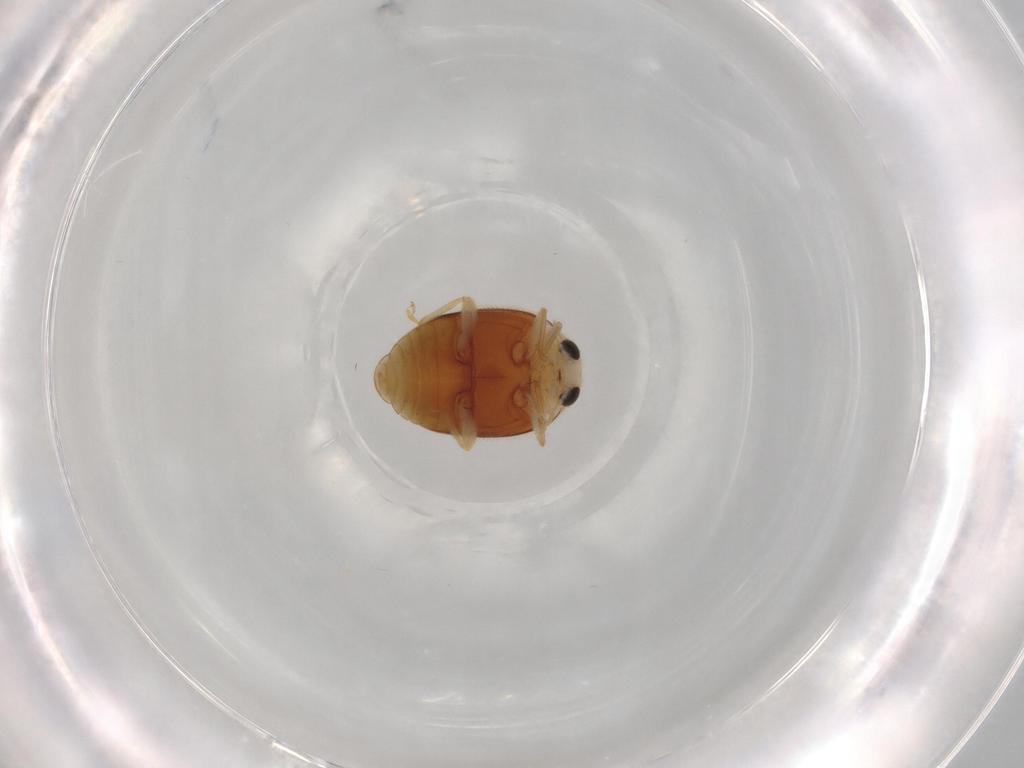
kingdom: Animalia
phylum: Arthropoda
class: Insecta
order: Coleoptera
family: Coccinellidae
